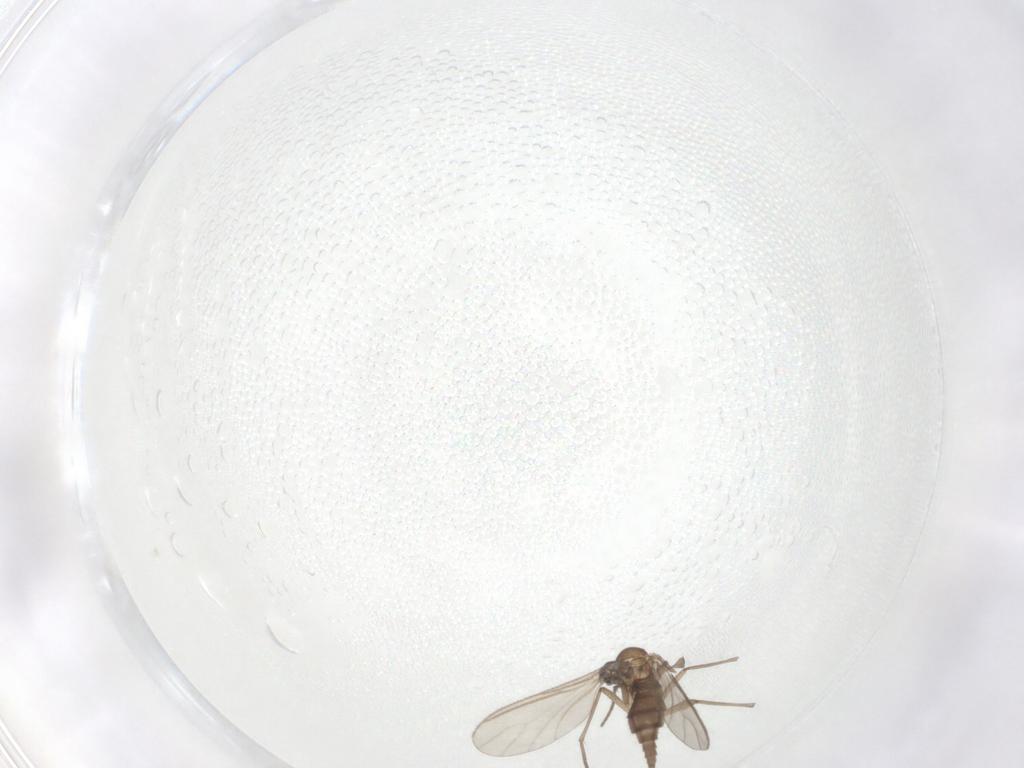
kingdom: Animalia
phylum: Arthropoda
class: Insecta
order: Diptera
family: Sciaridae
